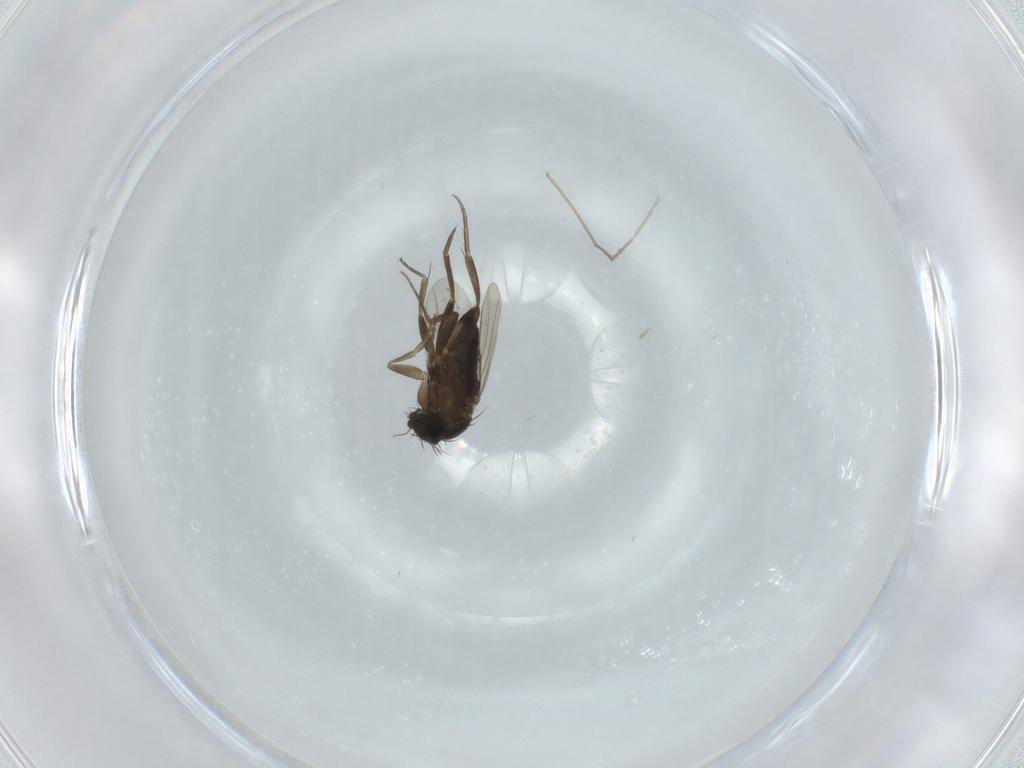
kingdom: Animalia
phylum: Arthropoda
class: Insecta
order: Diptera
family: Cecidomyiidae
